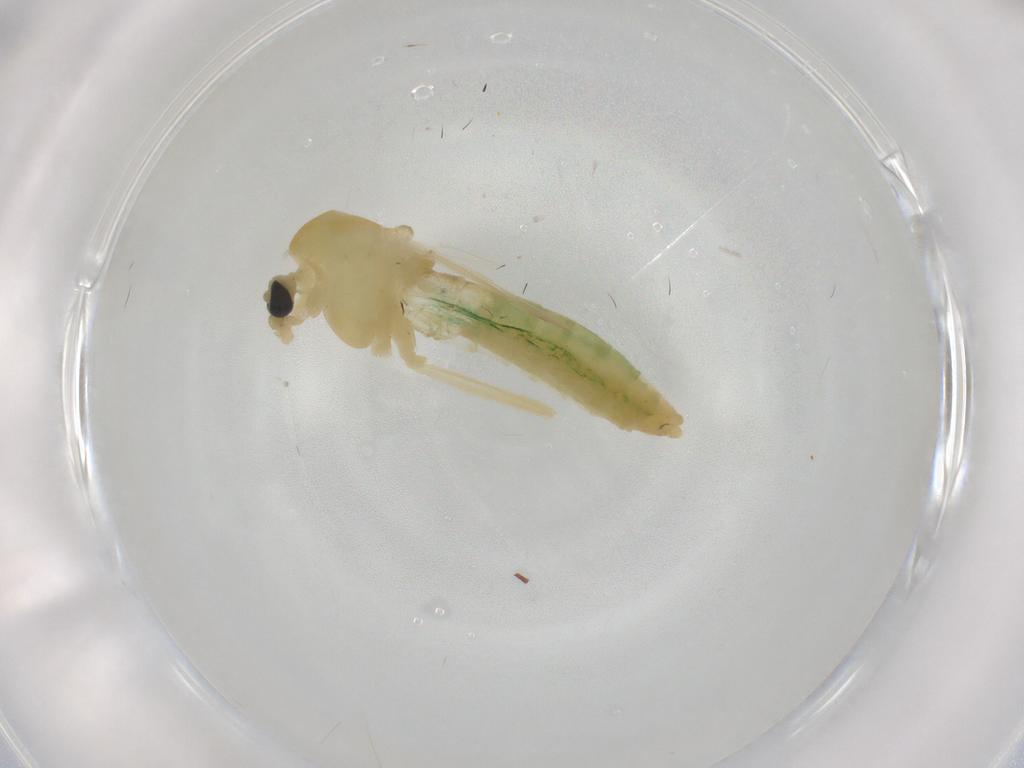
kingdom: Animalia
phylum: Arthropoda
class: Insecta
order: Diptera
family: Chironomidae
